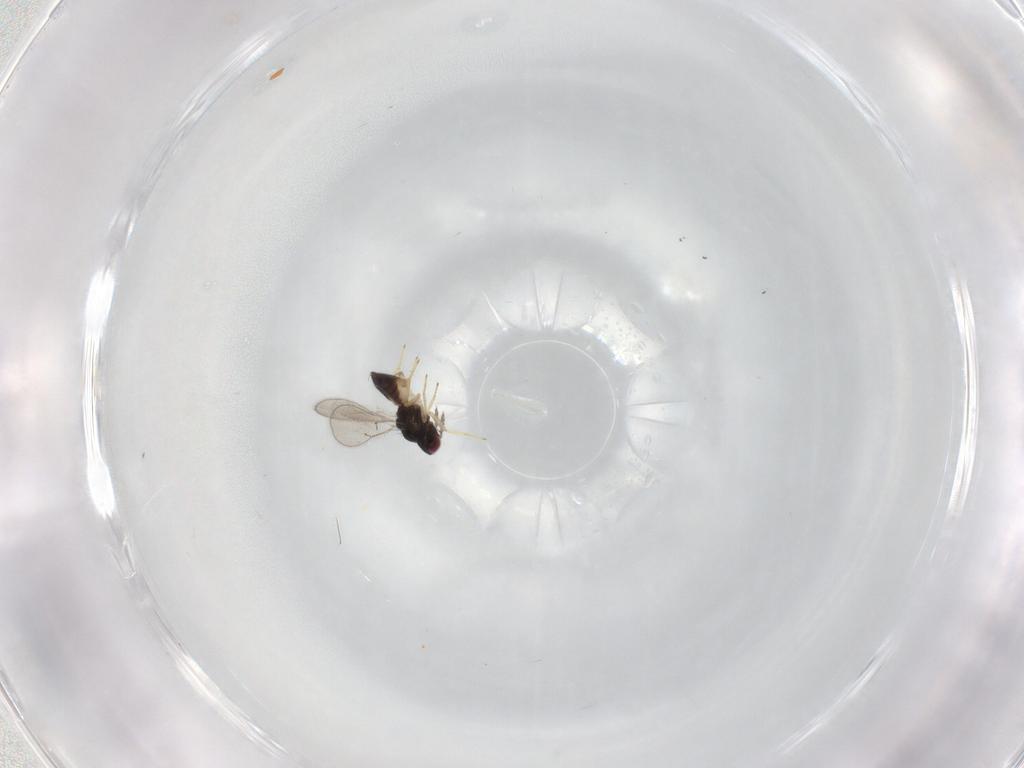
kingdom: Animalia
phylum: Arthropoda
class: Insecta
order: Hymenoptera
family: Eulophidae
